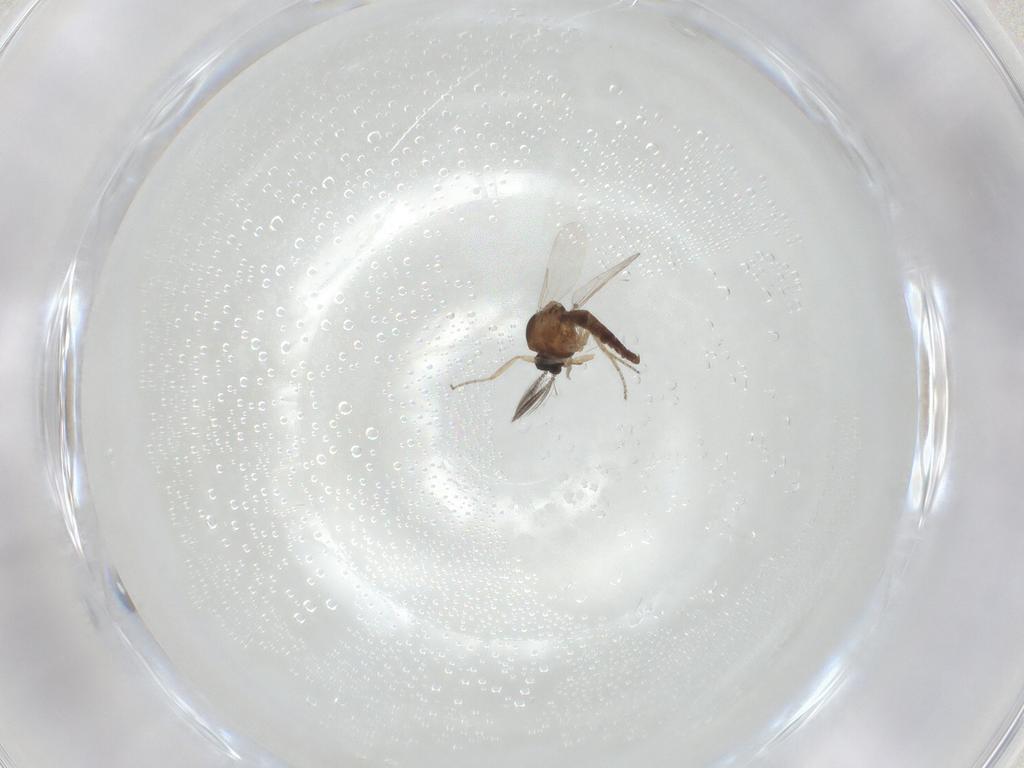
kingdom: Animalia
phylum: Arthropoda
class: Insecta
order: Diptera
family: Ceratopogonidae
